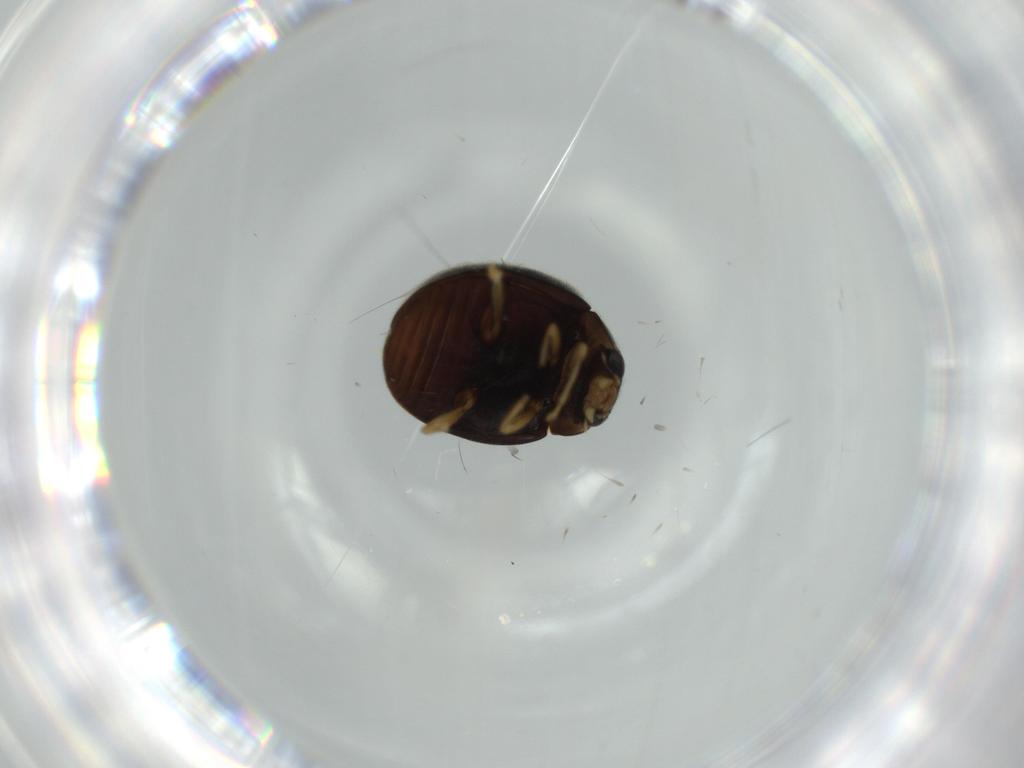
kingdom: Animalia
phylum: Arthropoda
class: Insecta
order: Coleoptera
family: Coccinellidae
